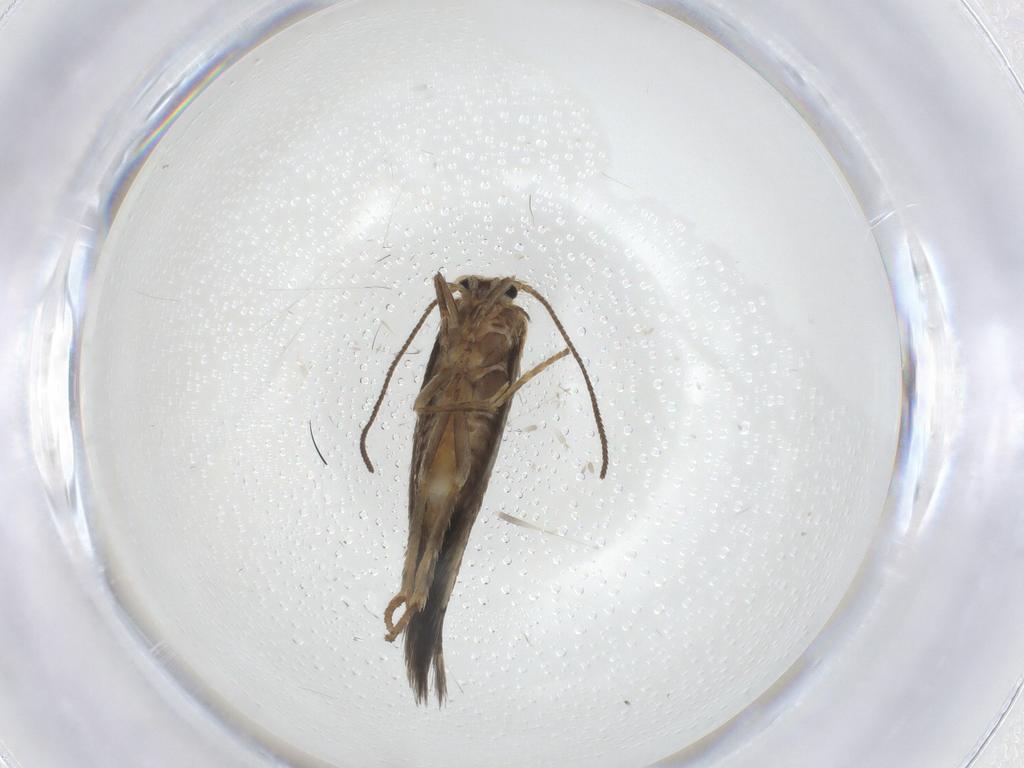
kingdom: Animalia
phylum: Arthropoda
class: Insecta
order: Lepidoptera
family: Nepticulidae
